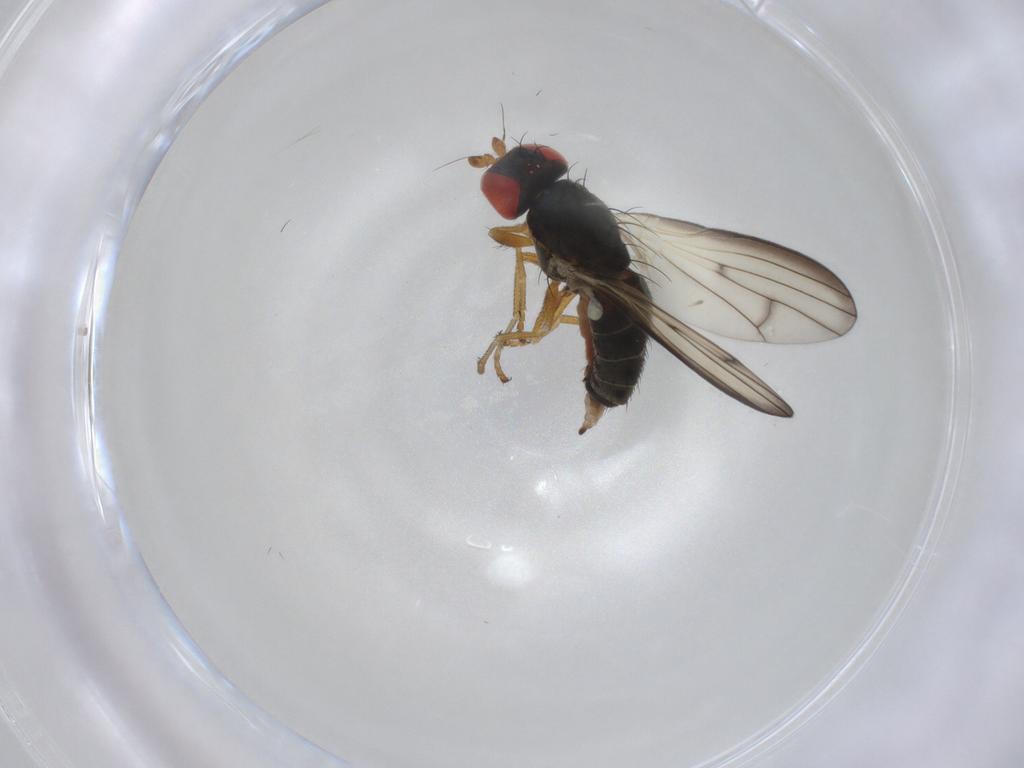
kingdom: Animalia
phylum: Arthropoda
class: Insecta
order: Diptera
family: Chamaemyiidae
